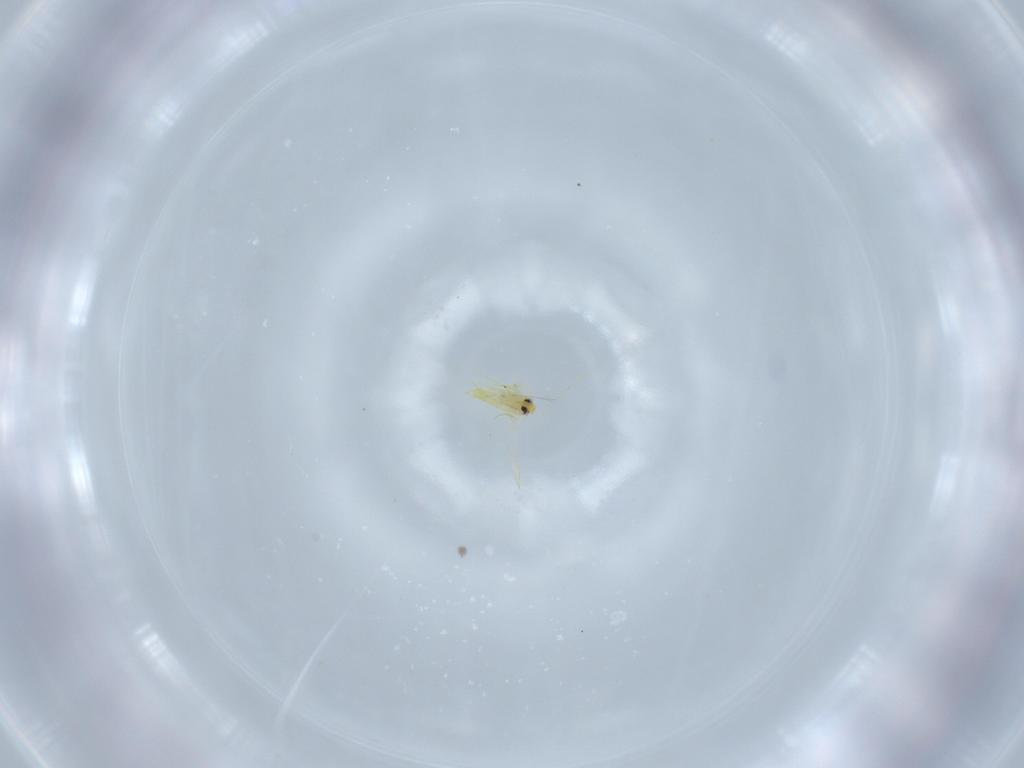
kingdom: Animalia
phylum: Arthropoda
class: Insecta
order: Hemiptera
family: Aleyrodidae
